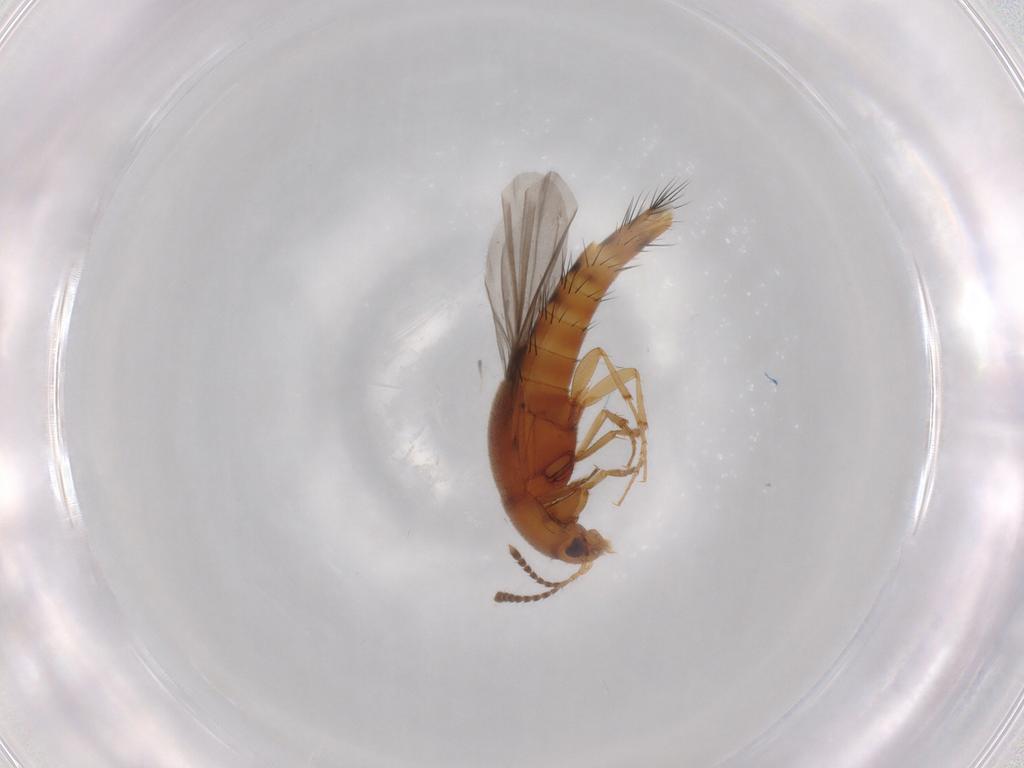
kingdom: Animalia
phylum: Arthropoda
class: Insecta
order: Coleoptera
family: Staphylinidae
